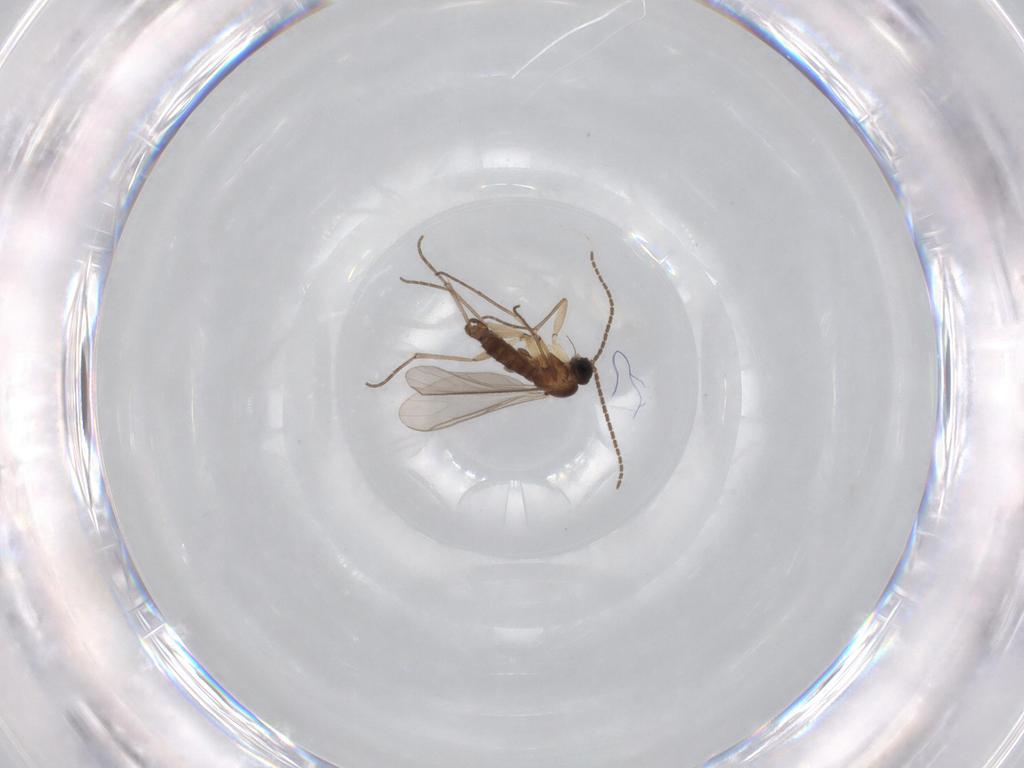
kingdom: Animalia
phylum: Arthropoda
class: Insecta
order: Diptera
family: Sciaridae
